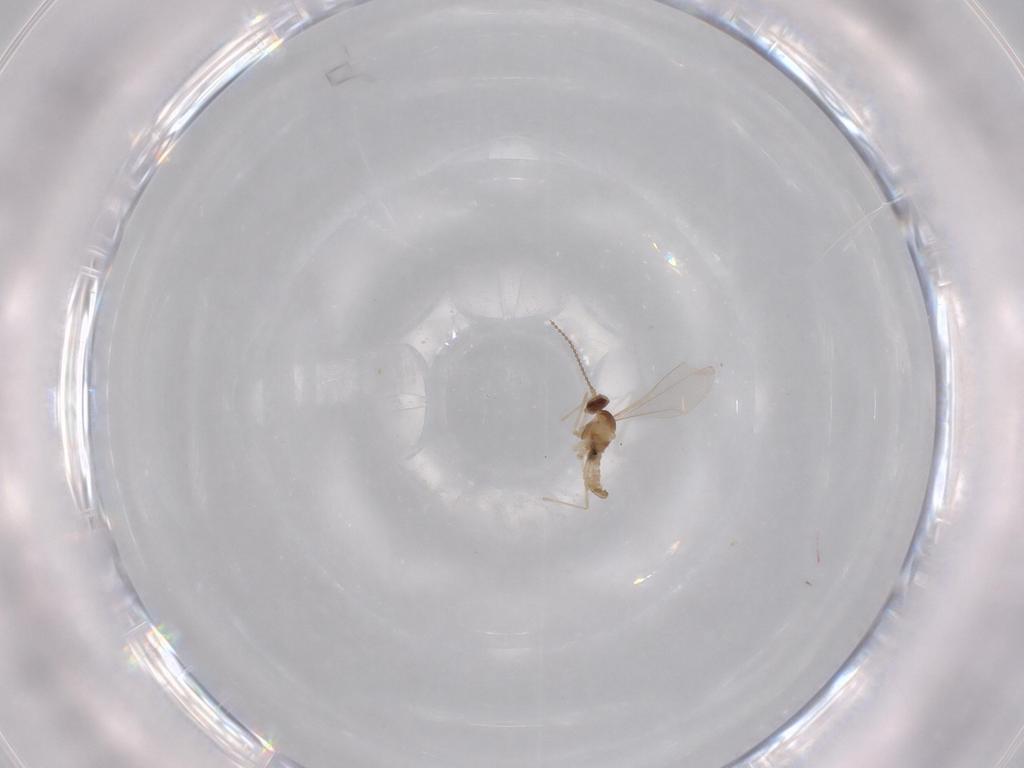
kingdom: Animalia
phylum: Arthropoda
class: Insecta
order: Diptera
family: Cecidomyiidae
